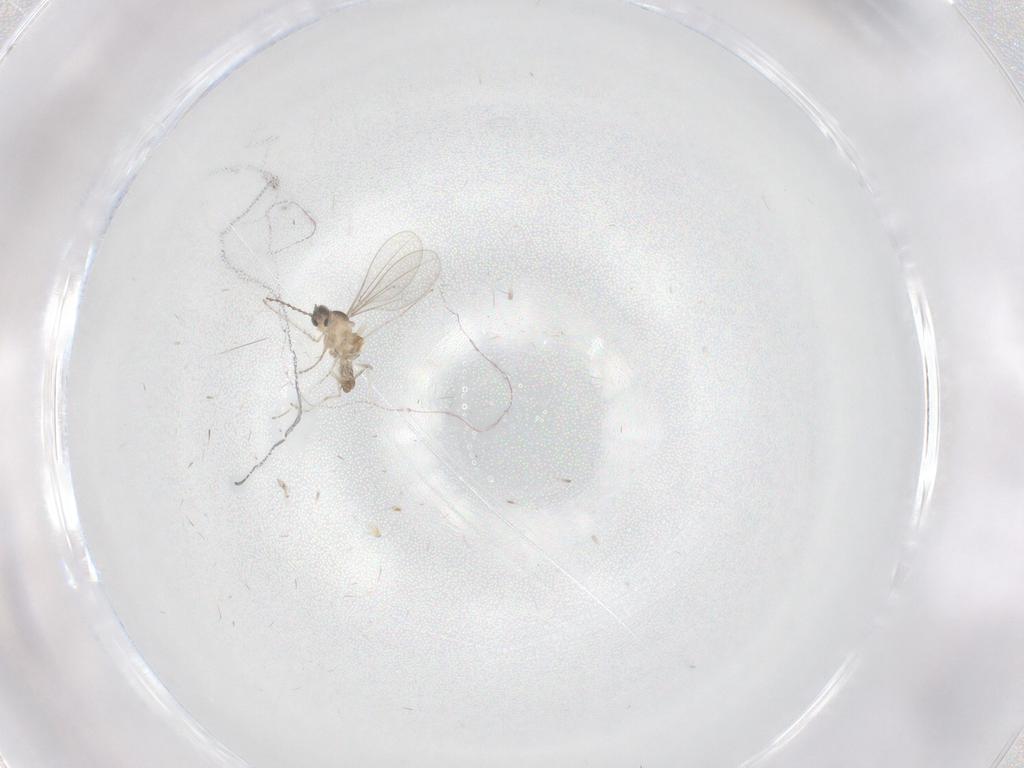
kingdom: Animalia
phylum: Arthropoda
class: Insecta
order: Diptera
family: Cecidomyiidae
